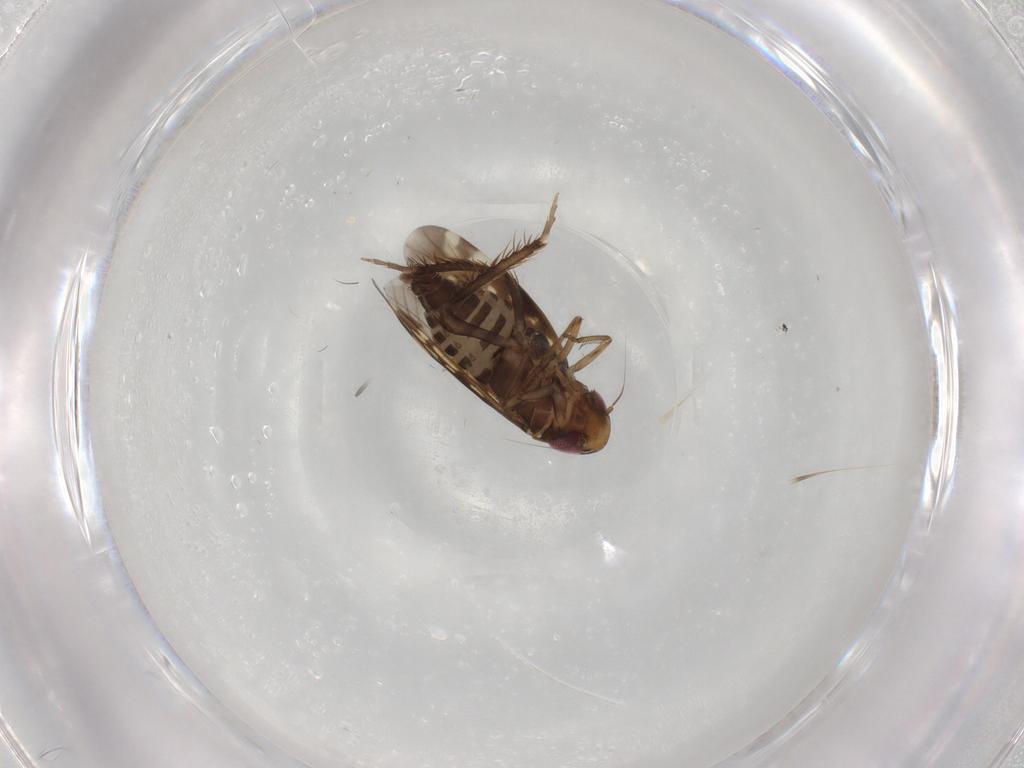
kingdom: Animalia
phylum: Arthropoda
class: Insecta
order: Hemiptera
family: Cicadellidae
